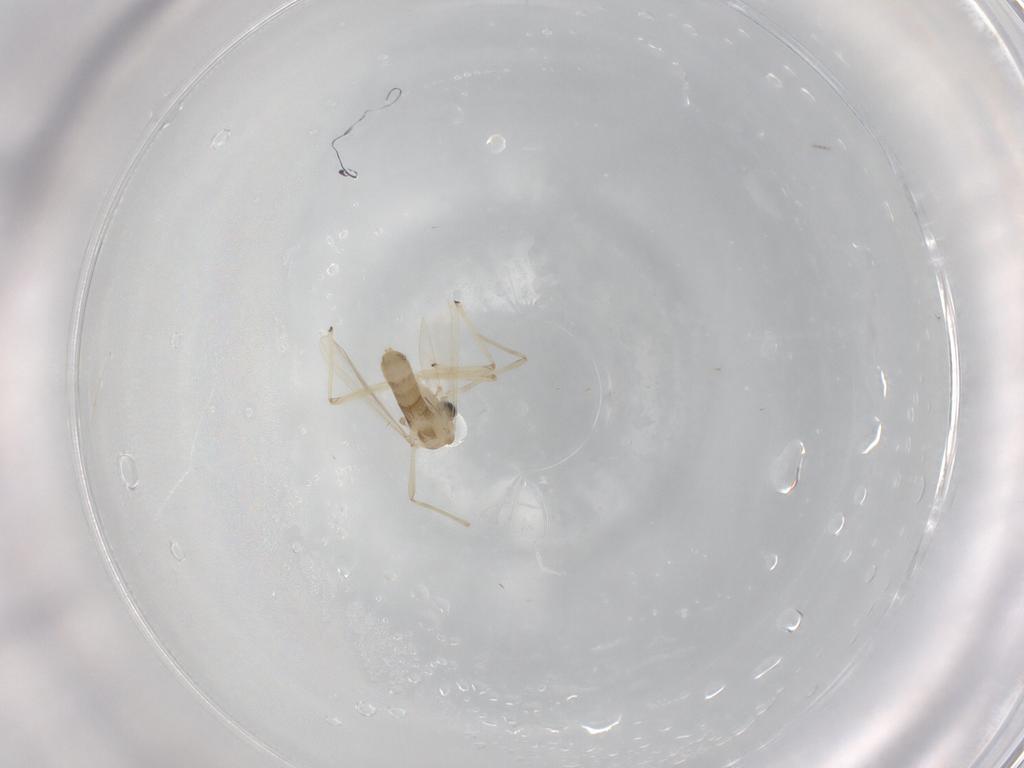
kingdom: Animalia
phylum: Arthropoda
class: Insecta
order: Diptera
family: Chironomidae
